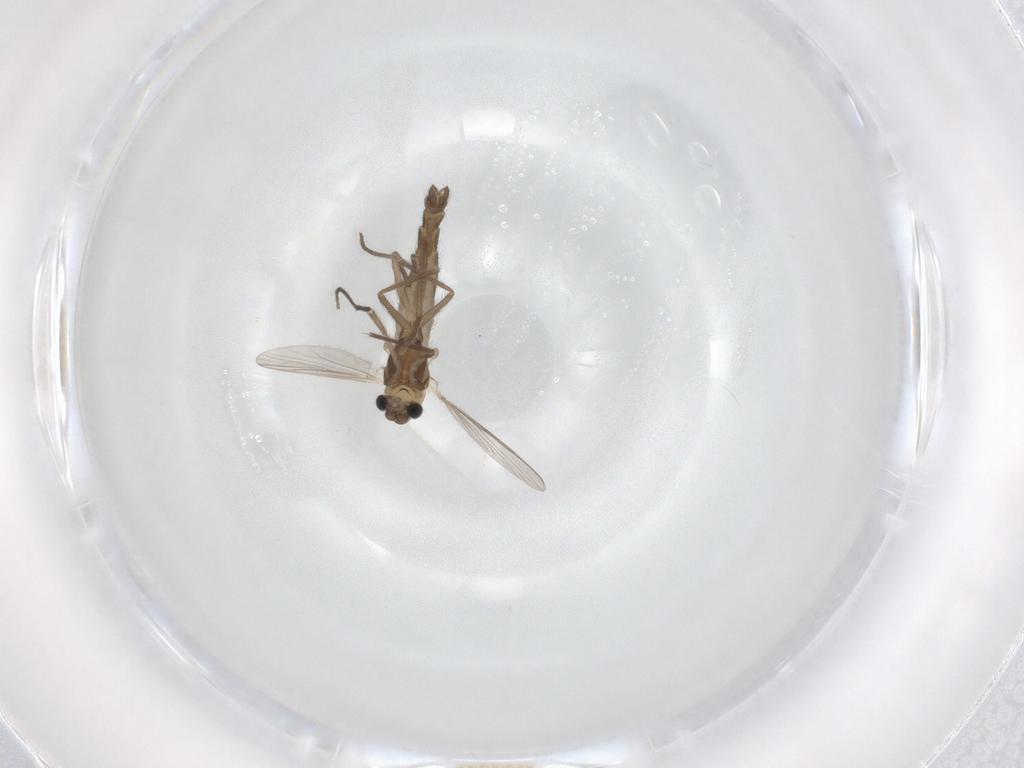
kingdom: Animalia
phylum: Arthropoda
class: Insecta
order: Diptera
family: Chironomidae
